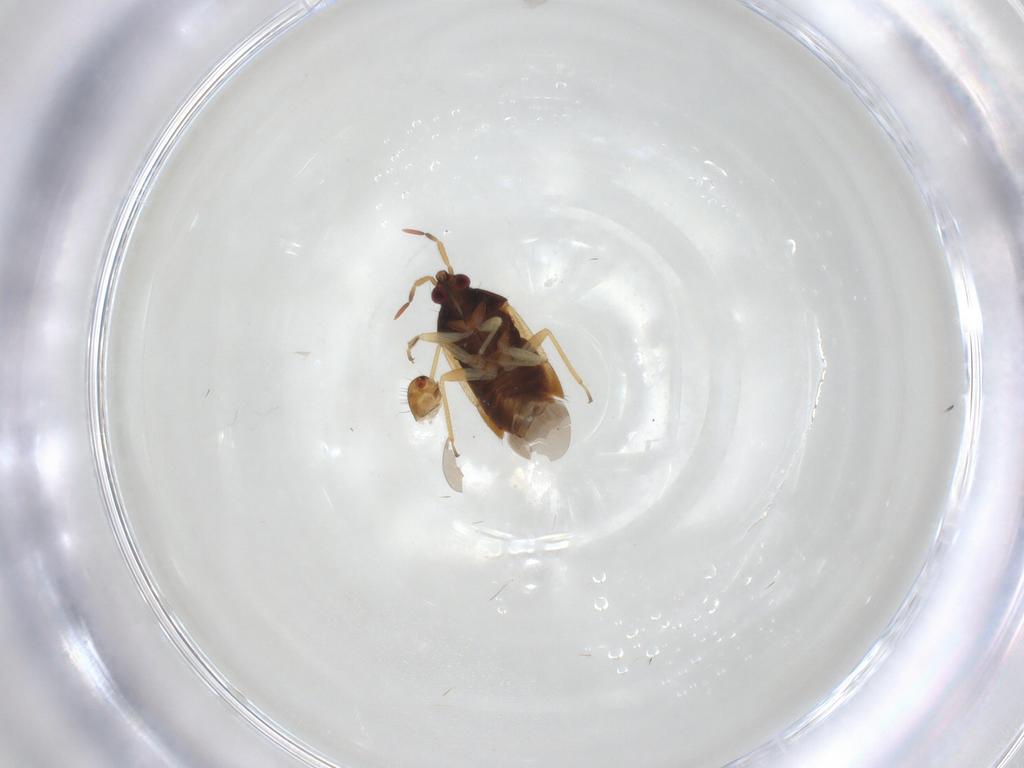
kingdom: Animalia
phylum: Arthropoda
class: Insecta
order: Hemiptera
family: Anthocoridae
